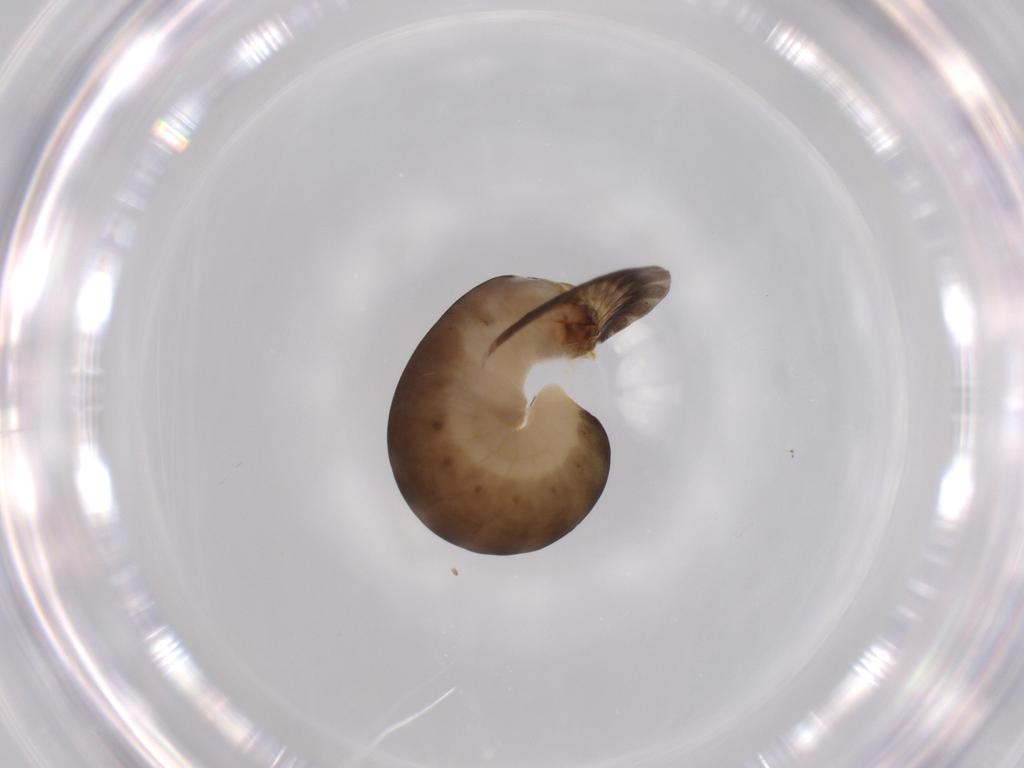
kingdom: Animalia
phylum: Arthropoda
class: Insecta
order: Hymenoptera
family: Dryinidae
